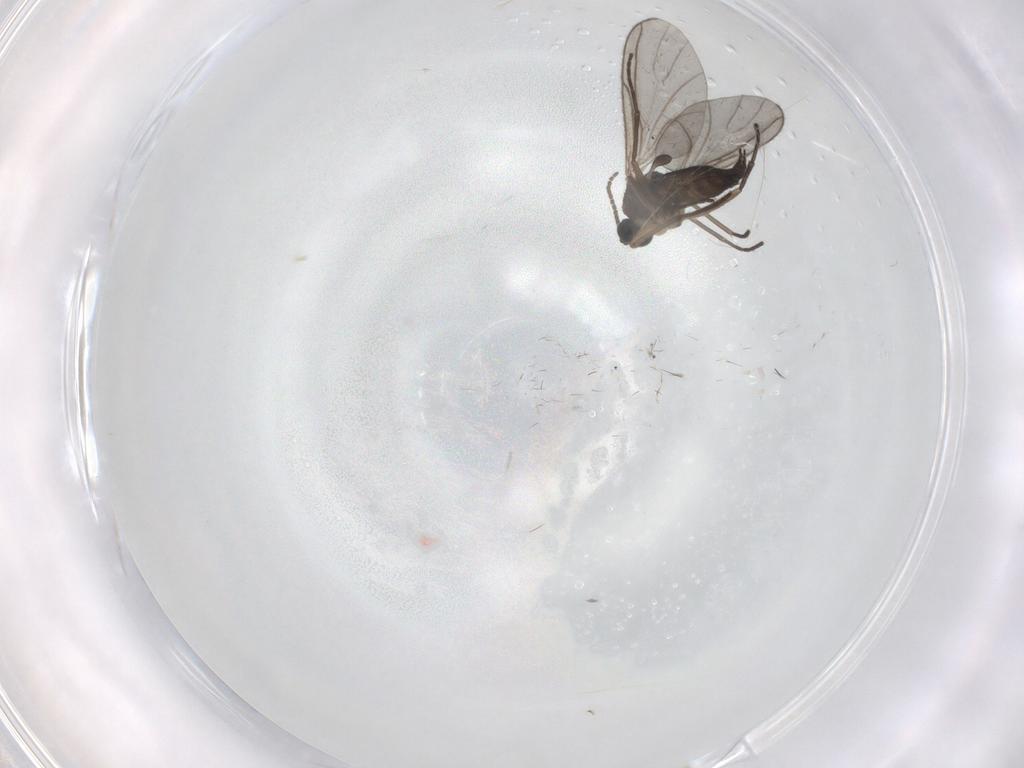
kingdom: Animalia
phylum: Arthropoda
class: Insecta
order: Diptera
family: Sciaridae
